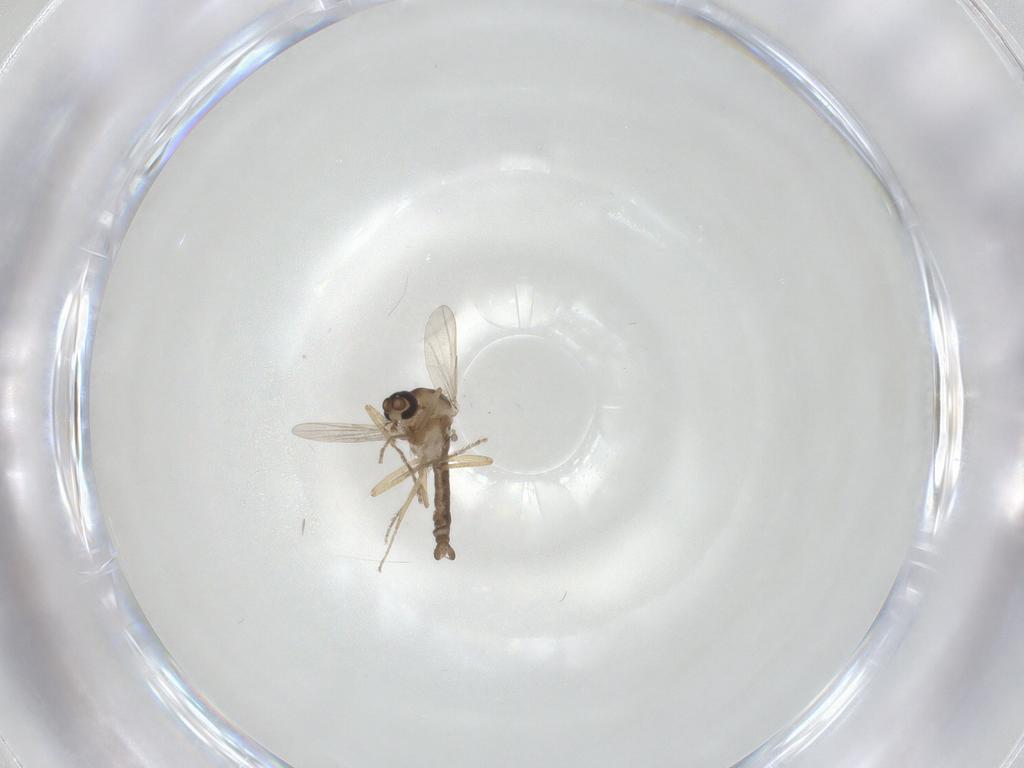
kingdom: Animalia
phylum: Arthropoda
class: Insecta
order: Diptera
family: Ceratopogonidae
